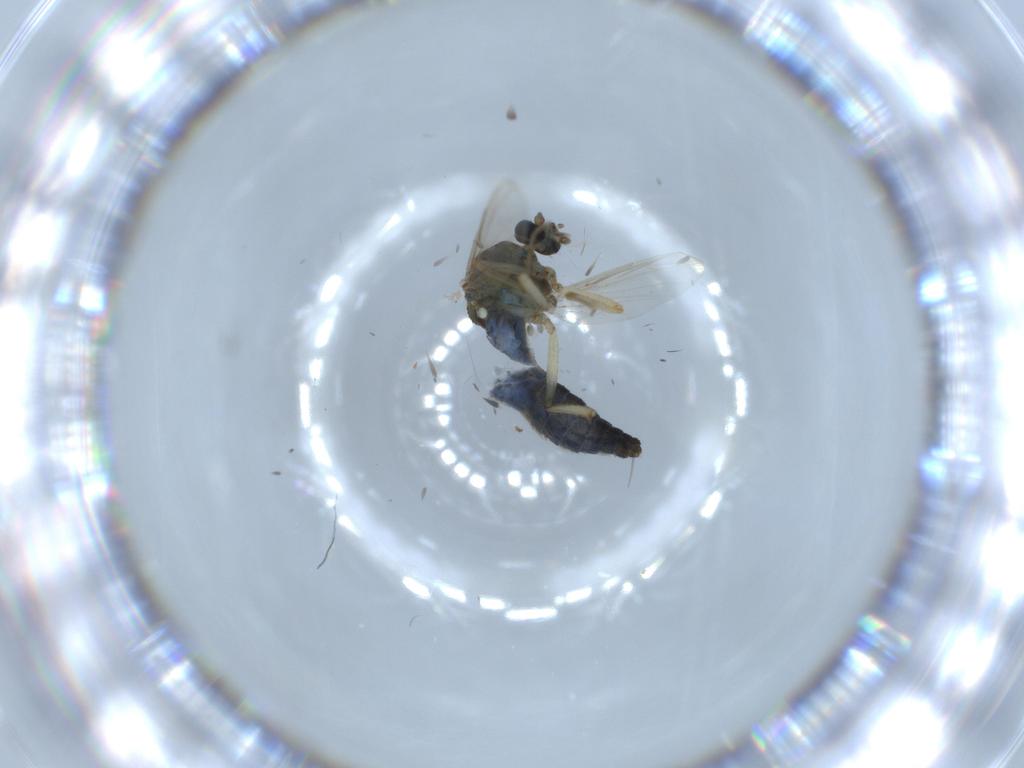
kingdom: Animalia
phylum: Arthropoda
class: Insecta
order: Diptera
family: Ceratopogonidae
